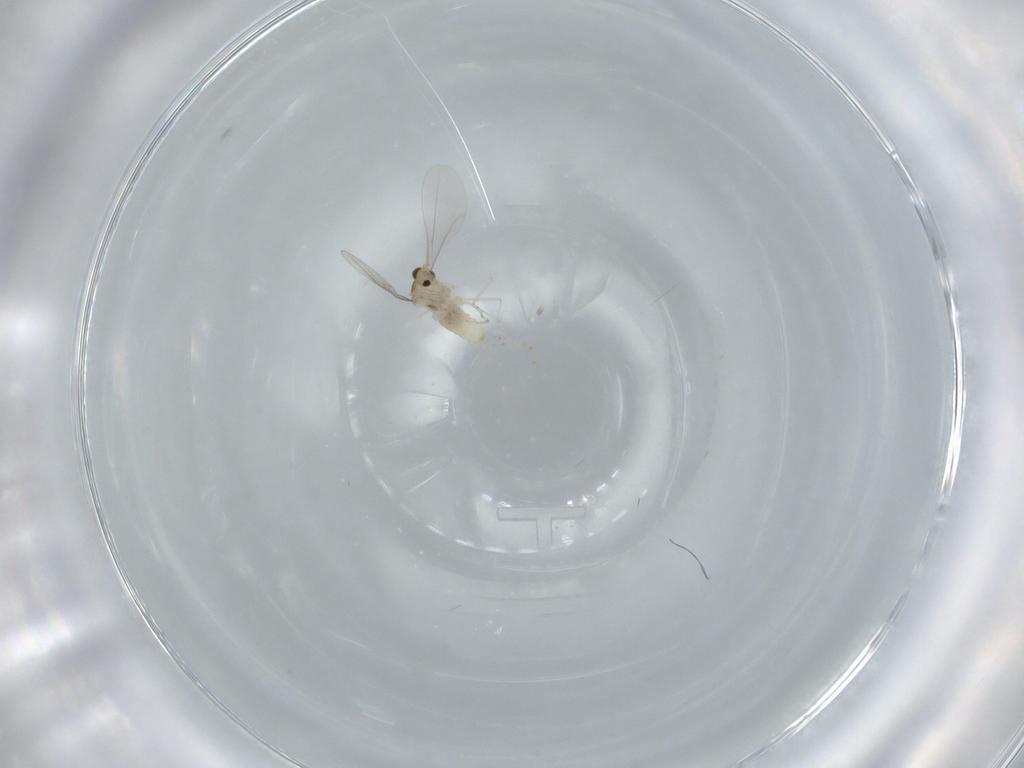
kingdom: Animalia
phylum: Arthropoda
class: Insecta
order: Diptera
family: Cecidomyiidae
